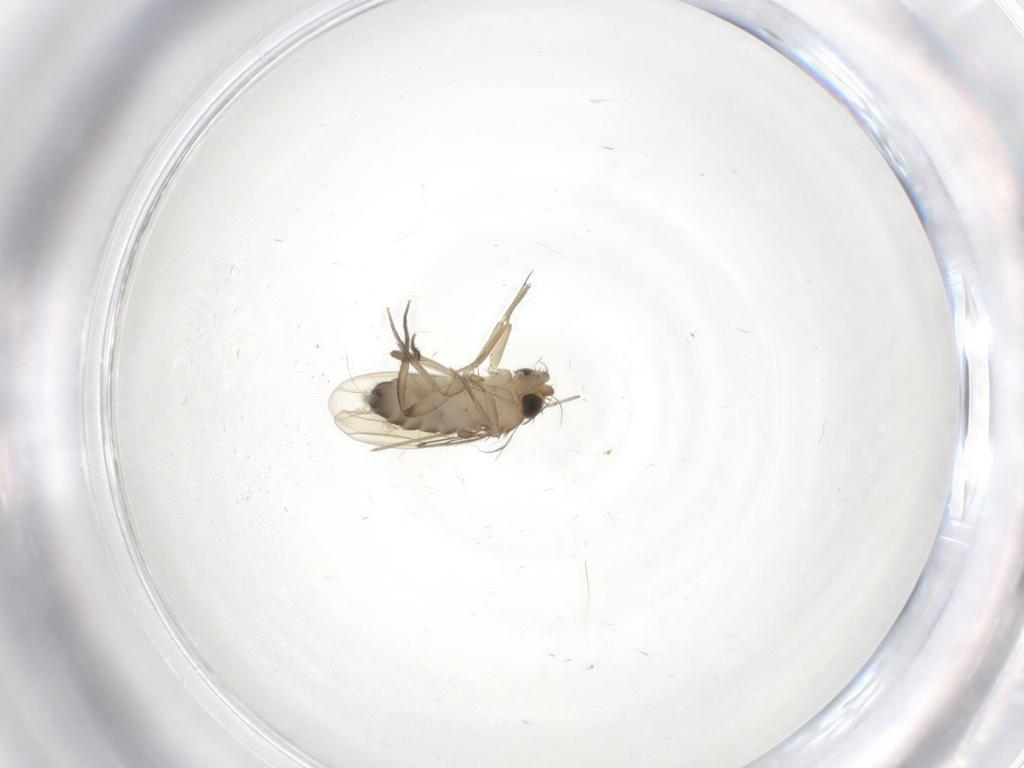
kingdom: Animalia
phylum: Arthropoda
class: Insecta
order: Diptera
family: Phoridae
